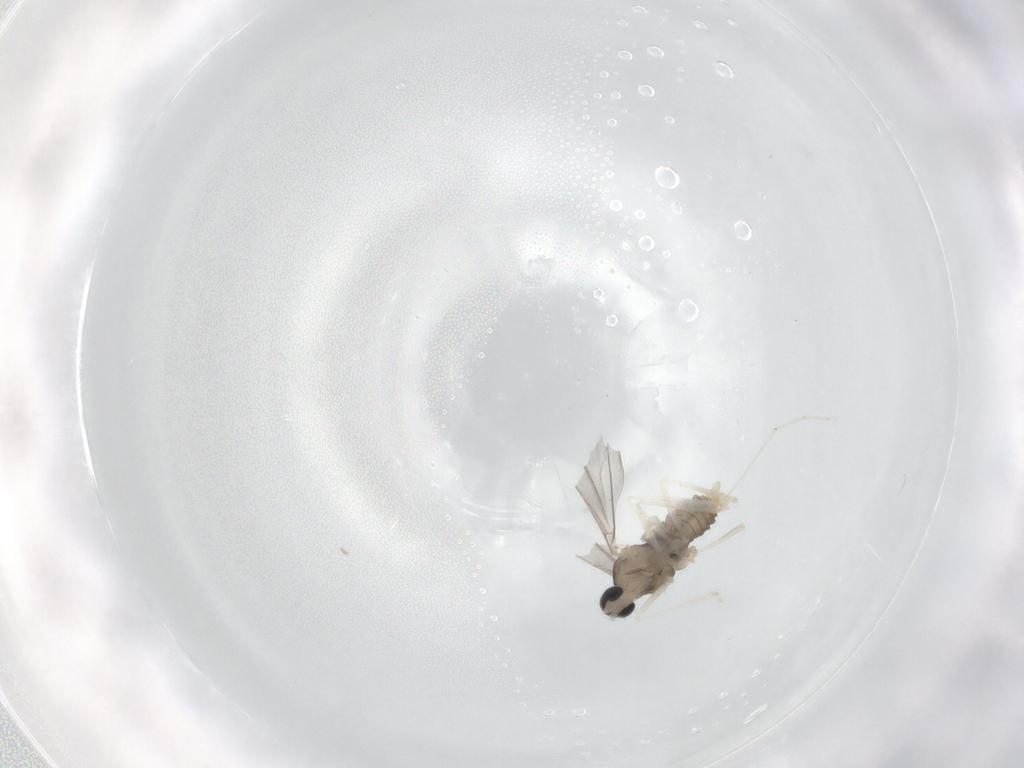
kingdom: Animalia
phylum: Arthropoda
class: Insecta
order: Diptera
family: Cecidomyiidae
